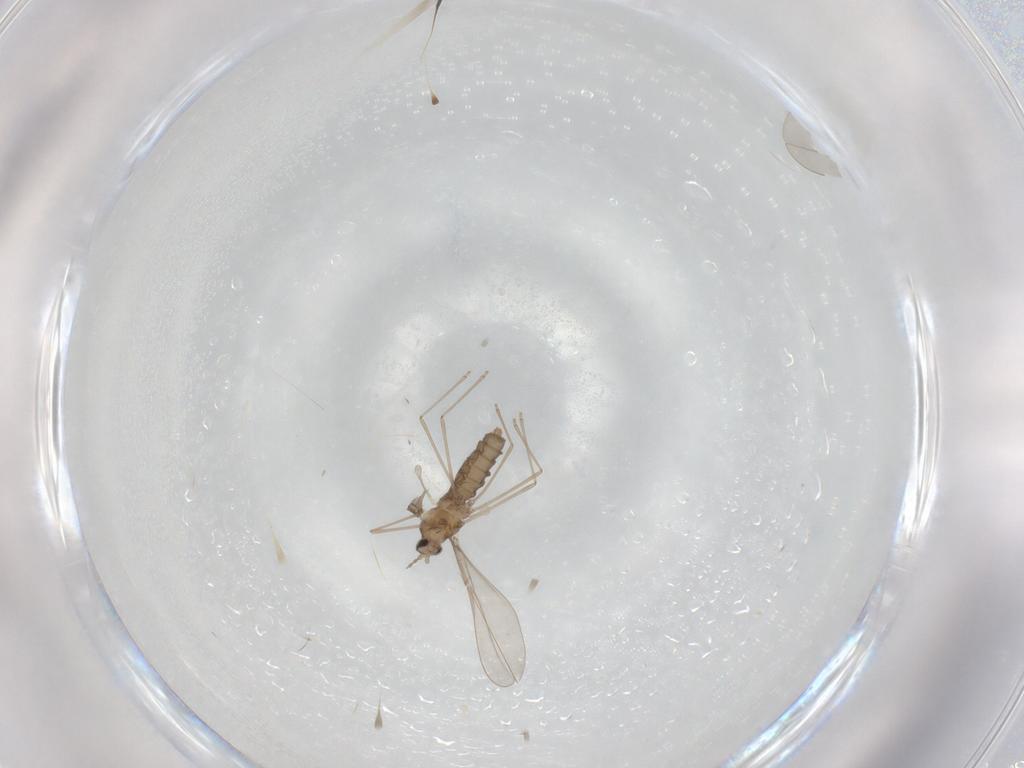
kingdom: Animalia
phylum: Arthropoda
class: Insecta
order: Diptera
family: Cecidomyiidae
